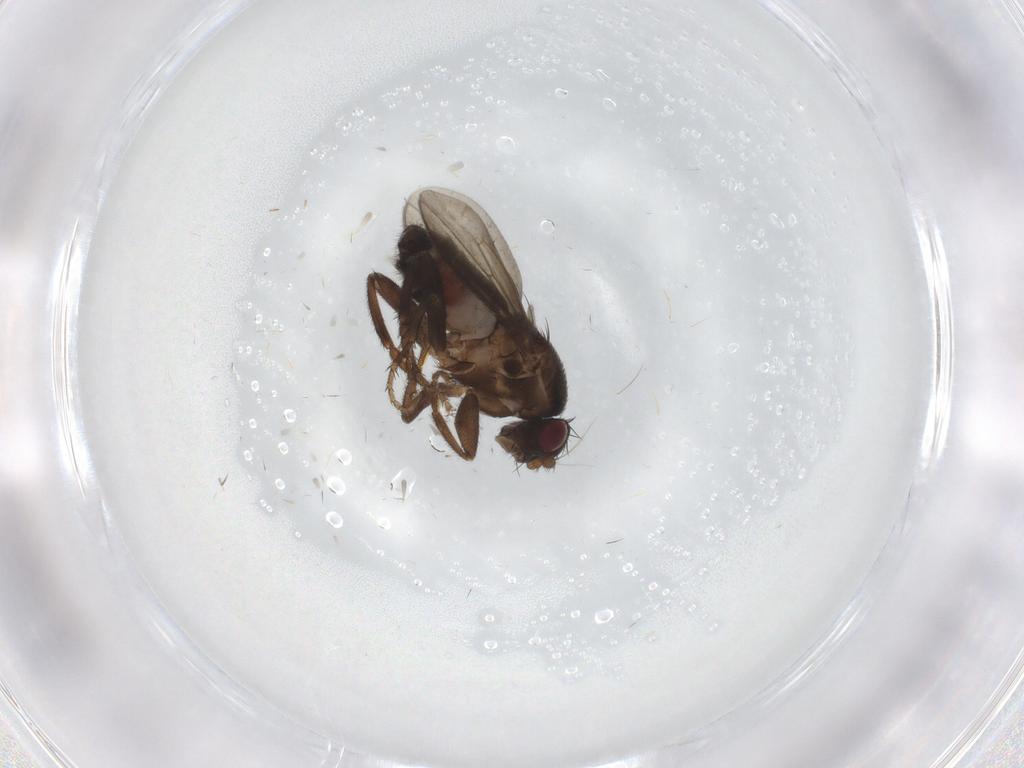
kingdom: Animalia
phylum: Arthropoda
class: Insecta
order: Diptera
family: Sphaeroceridae
